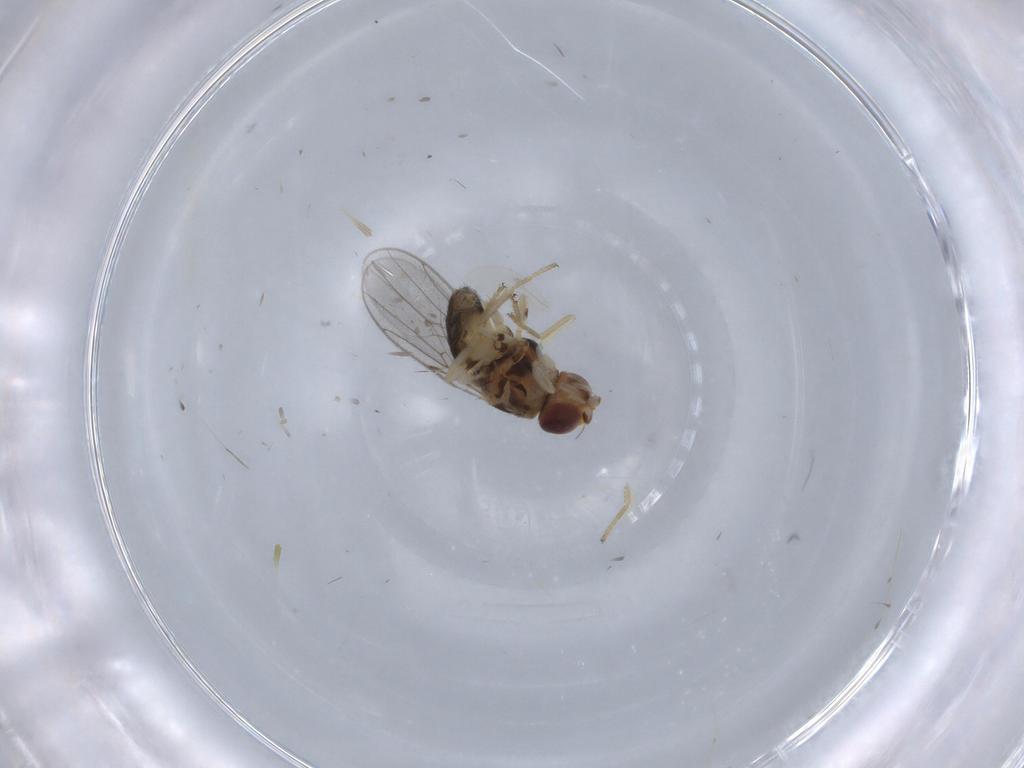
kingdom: Animalia
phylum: Arthropoda
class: Insecta
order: Diptera
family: Chloropidae
